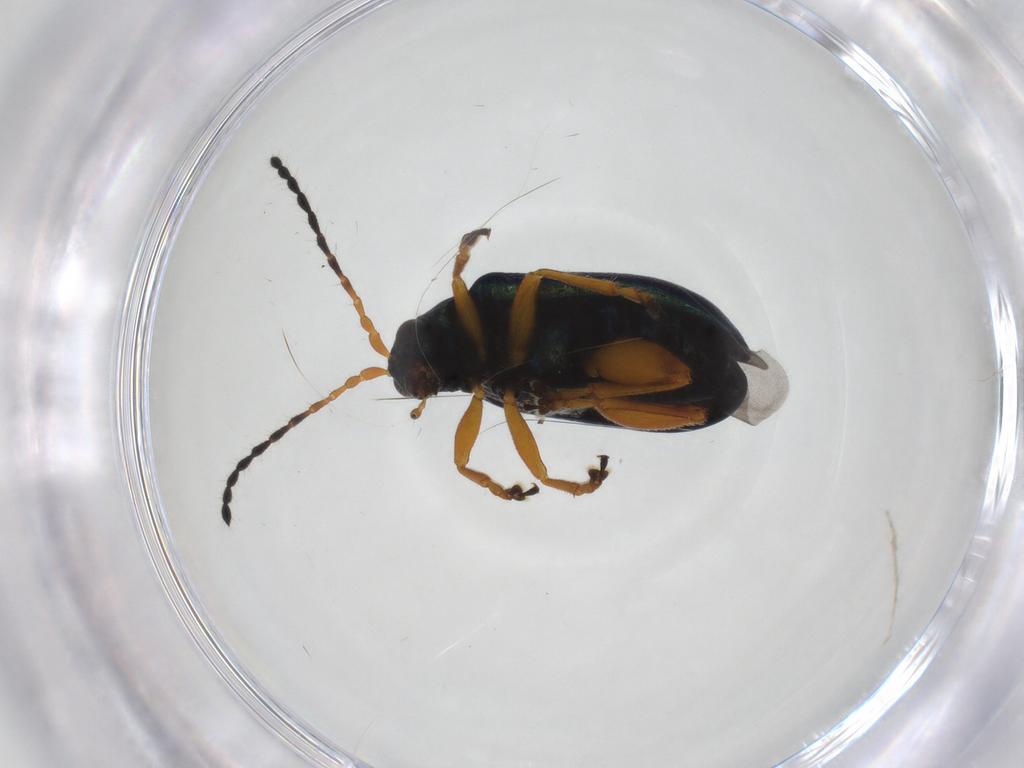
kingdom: Animalia
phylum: Arthropoda
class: Insecta
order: Coleoptera
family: Chrysomelidae
